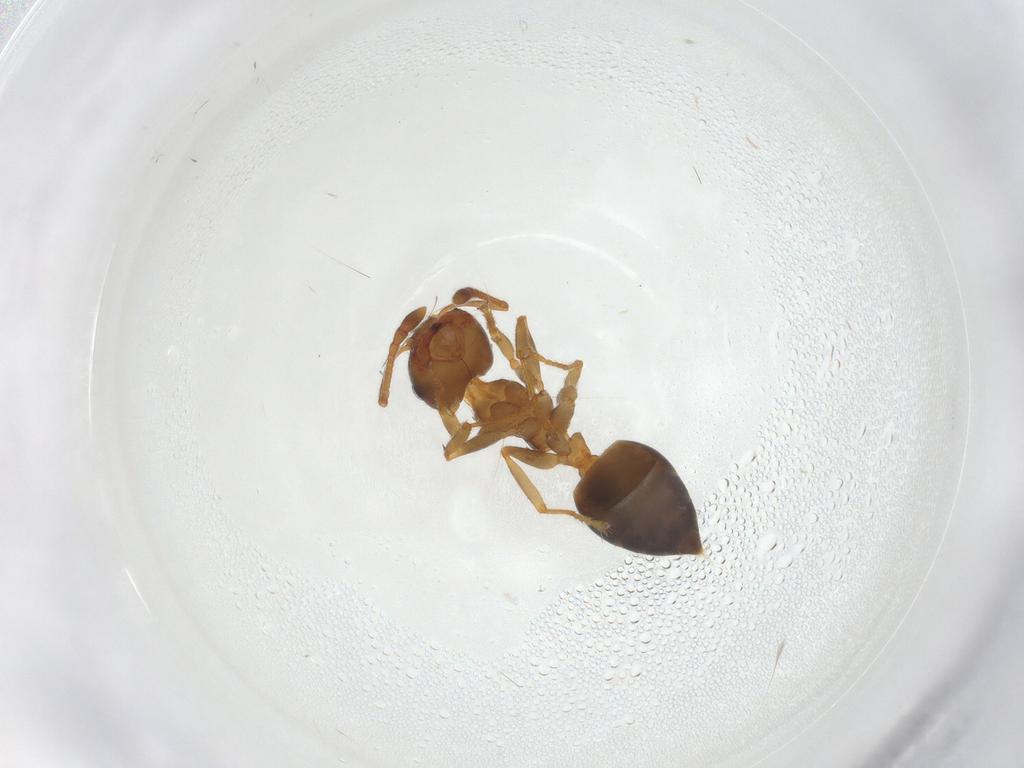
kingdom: Animalia
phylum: Arthropoda
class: Insecta
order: Hymenoptera
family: Formicidae
